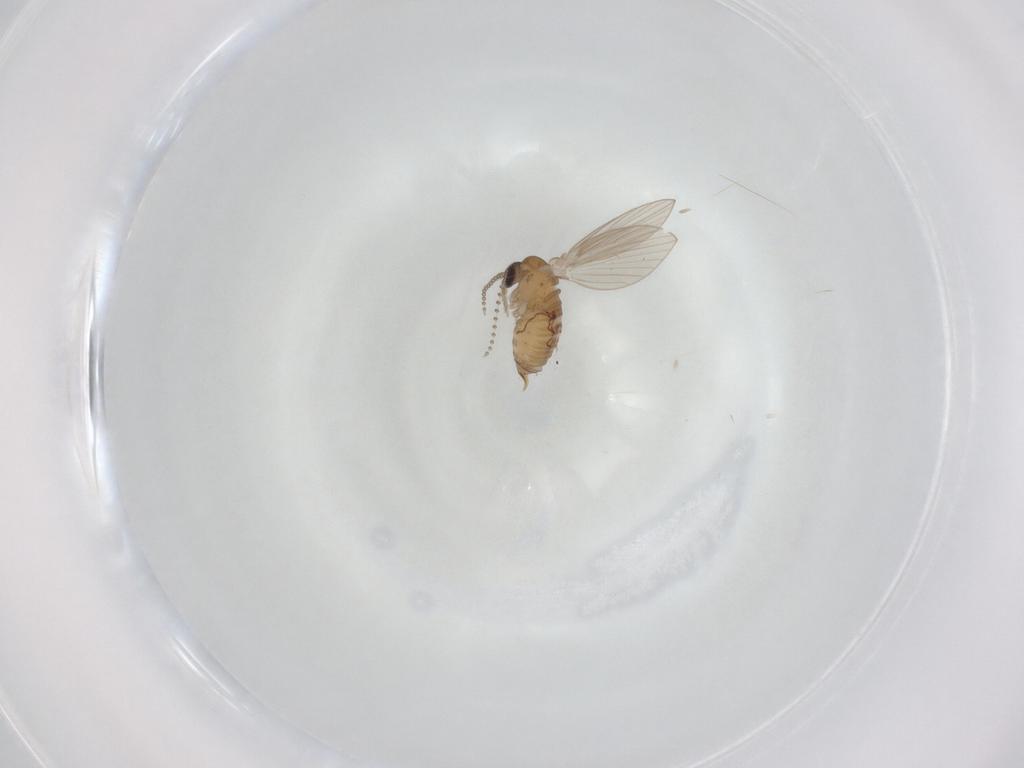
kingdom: Animalia
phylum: Arthropoda
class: Insecta
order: Diptera
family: Psychodidae
